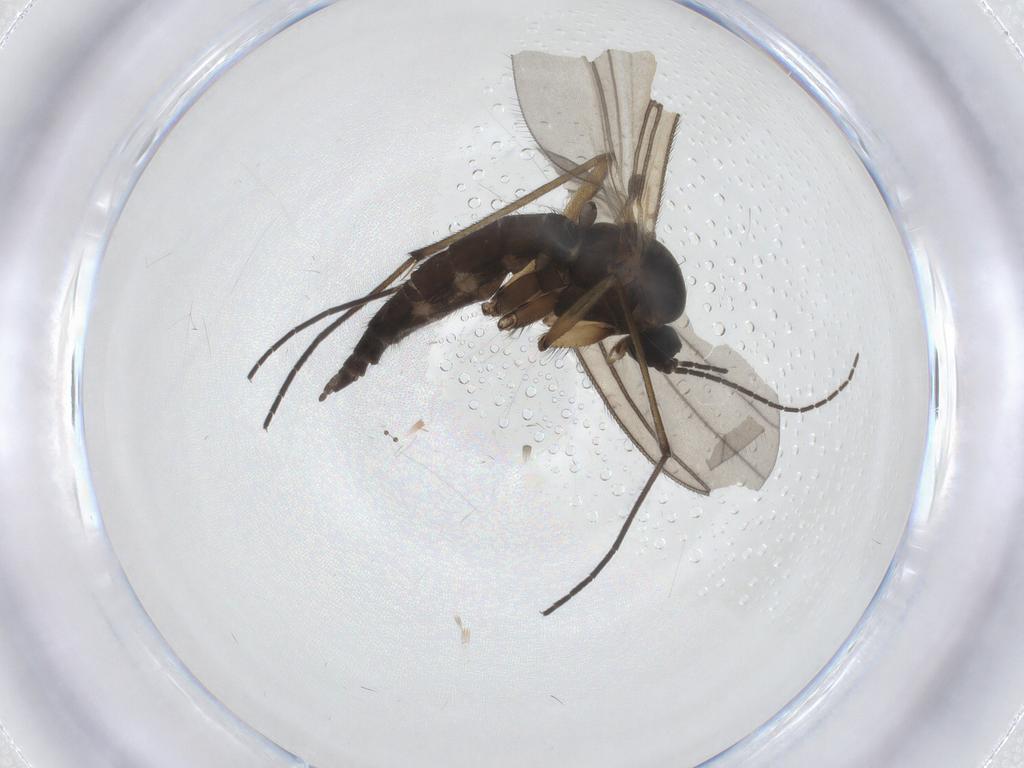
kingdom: Animalia
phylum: Arthropoda
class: Insecta
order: Diptera
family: Sciaridae
